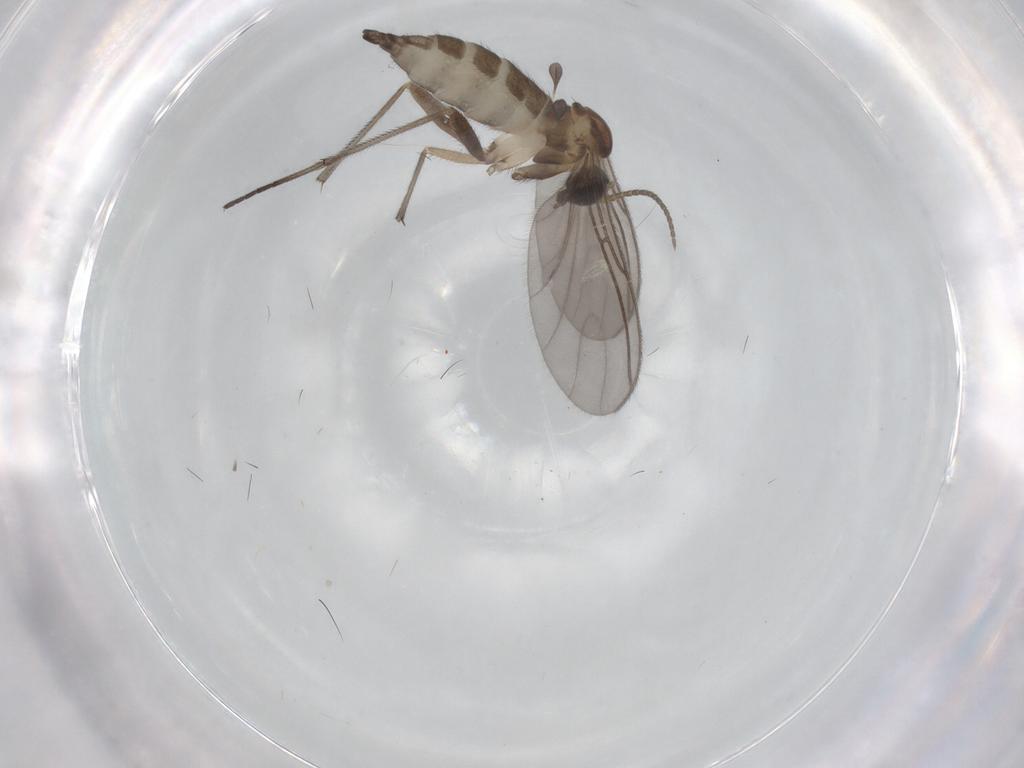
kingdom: Animalia
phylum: Arthropoda
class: Insecta
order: Diptera
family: Sciaridae
